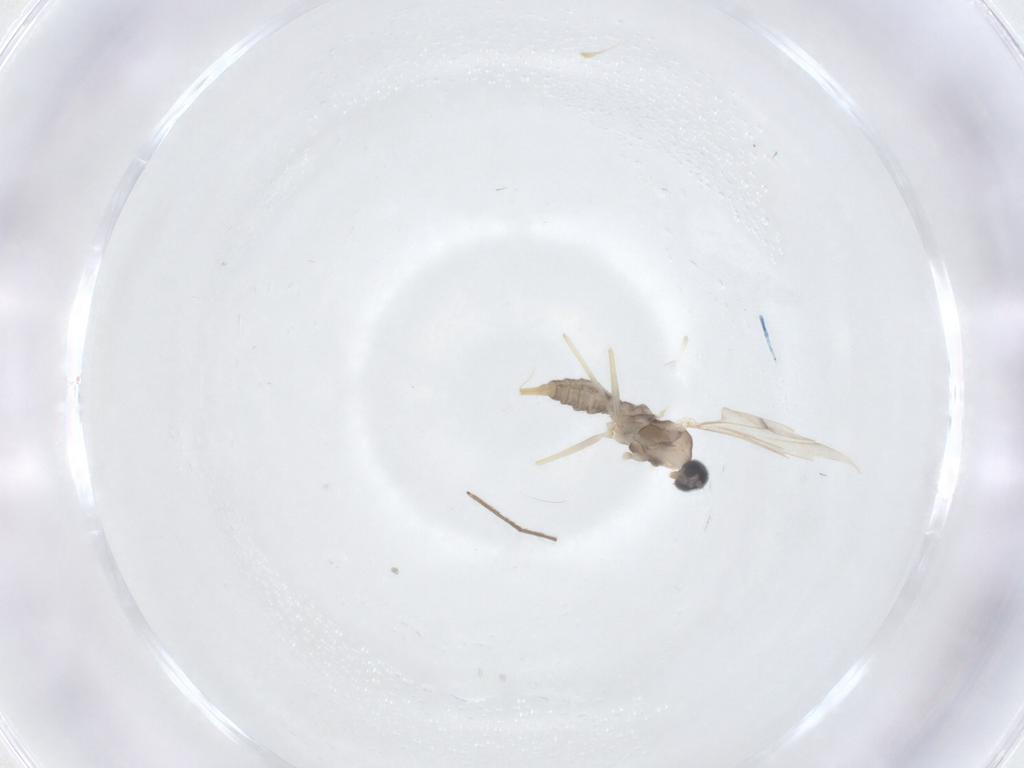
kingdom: Animalia
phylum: Arthropoda
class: Insecta
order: Diptera
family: Cecidomyiidae
